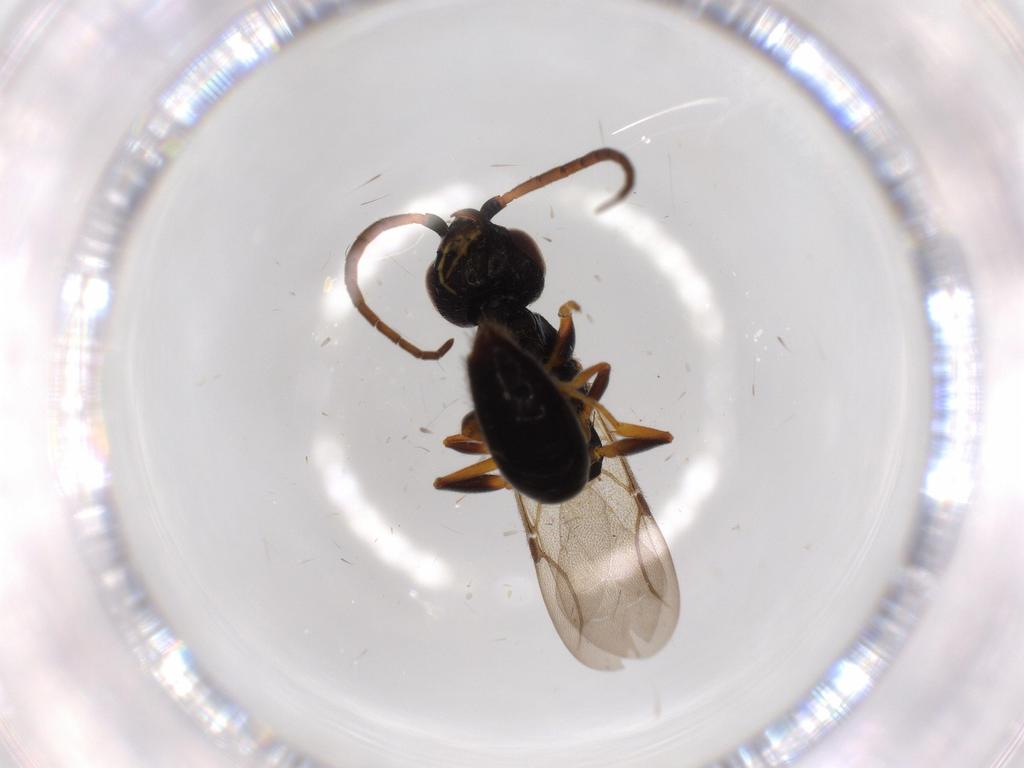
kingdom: Animalia
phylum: Arthropoda
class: Insecta
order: Hymenoptera
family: Bethylidae
